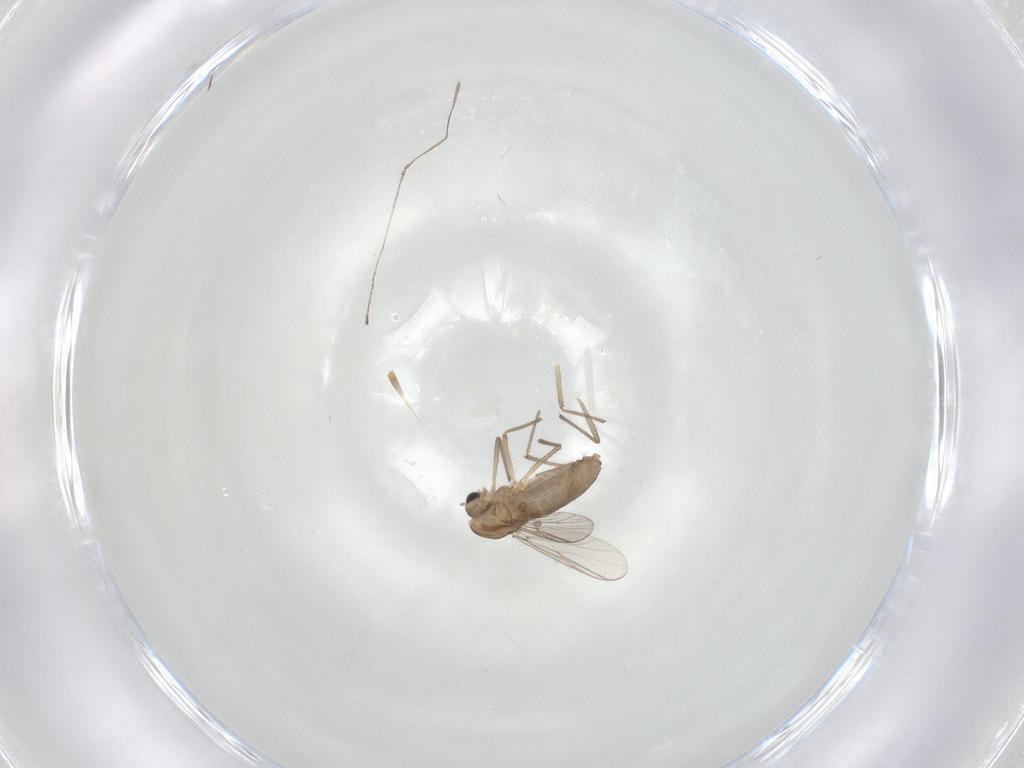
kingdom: Animalia
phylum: Arthropoda
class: Insecta
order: Diptera
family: Chironomidae
